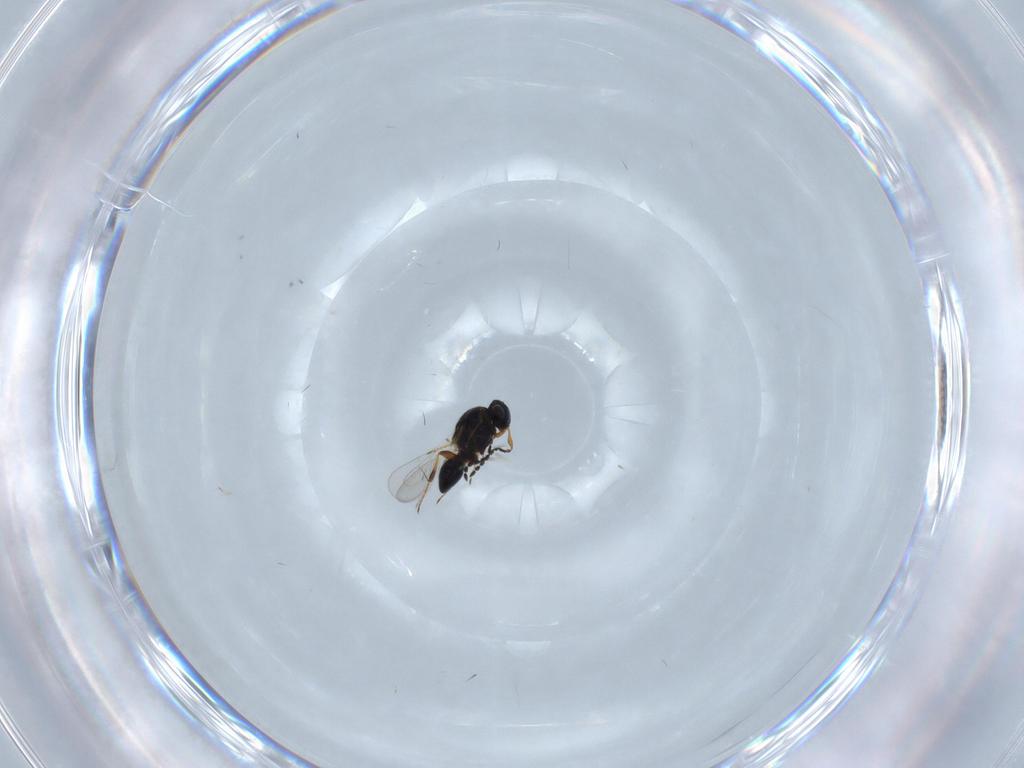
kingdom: Animalia
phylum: Arthropoda
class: Insecta
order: Hymenoptera
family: Platygastridae
